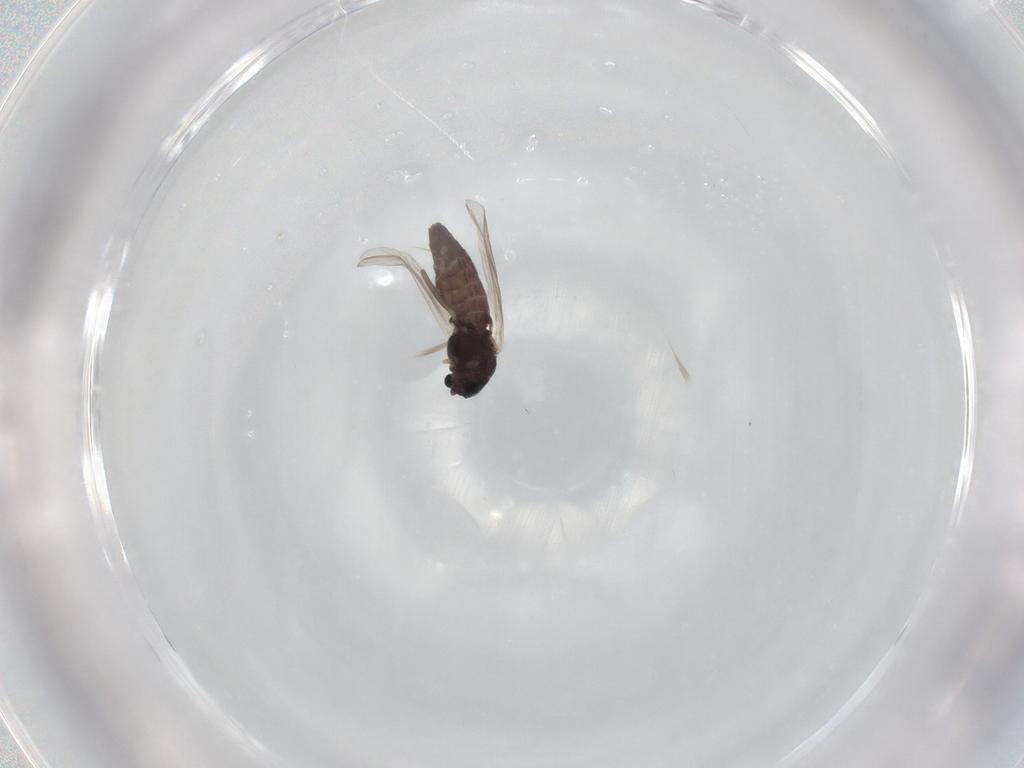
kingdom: Animalia
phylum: Arthropoda
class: Insecta
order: Diptera
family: Chironomidae
